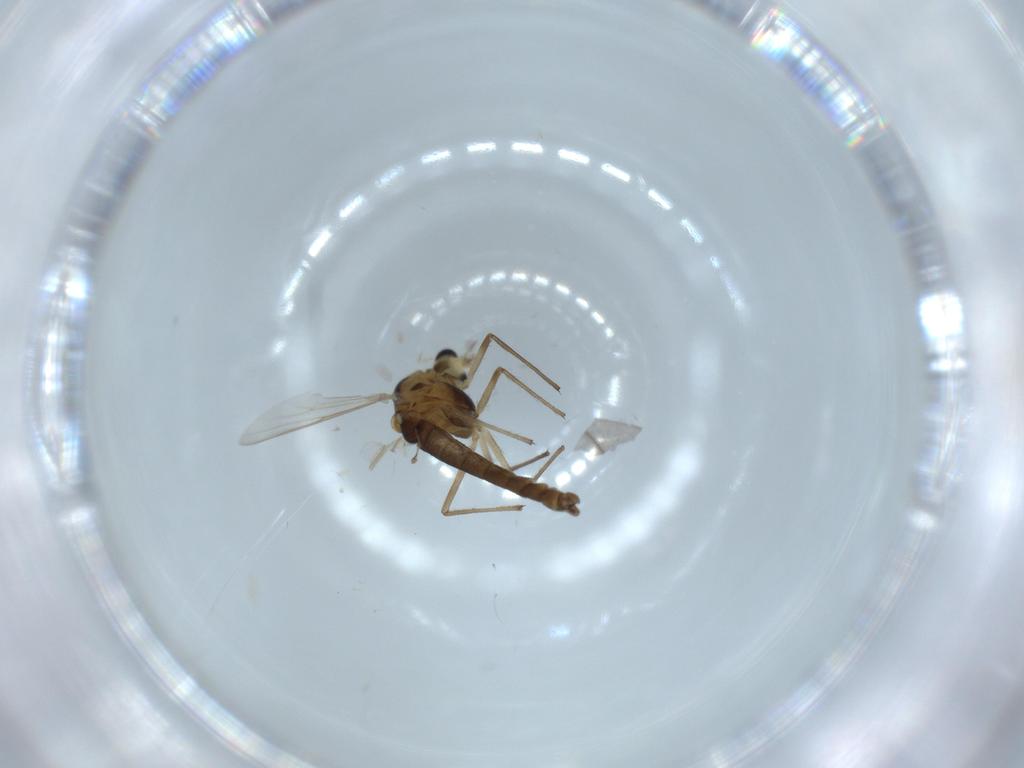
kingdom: Animalia
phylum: Arthropoda
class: Insecta
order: Diptera
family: Chironomidae
